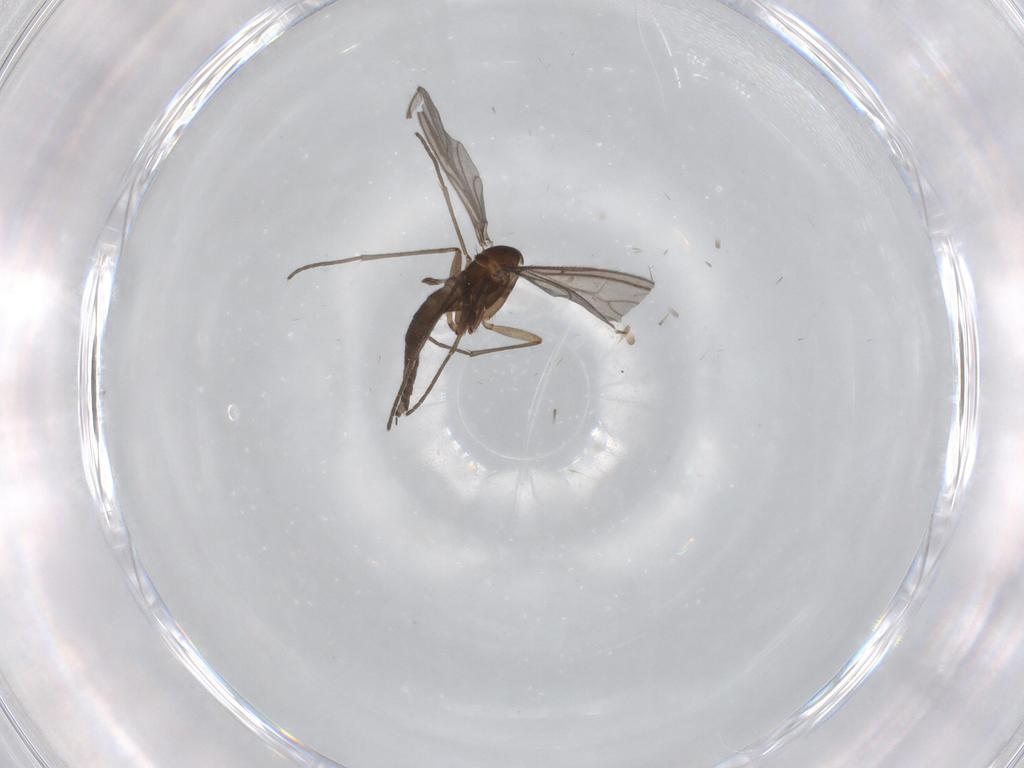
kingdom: Animalia
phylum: Arthropoda
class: Insecta
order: Diptera
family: Sciaridae
